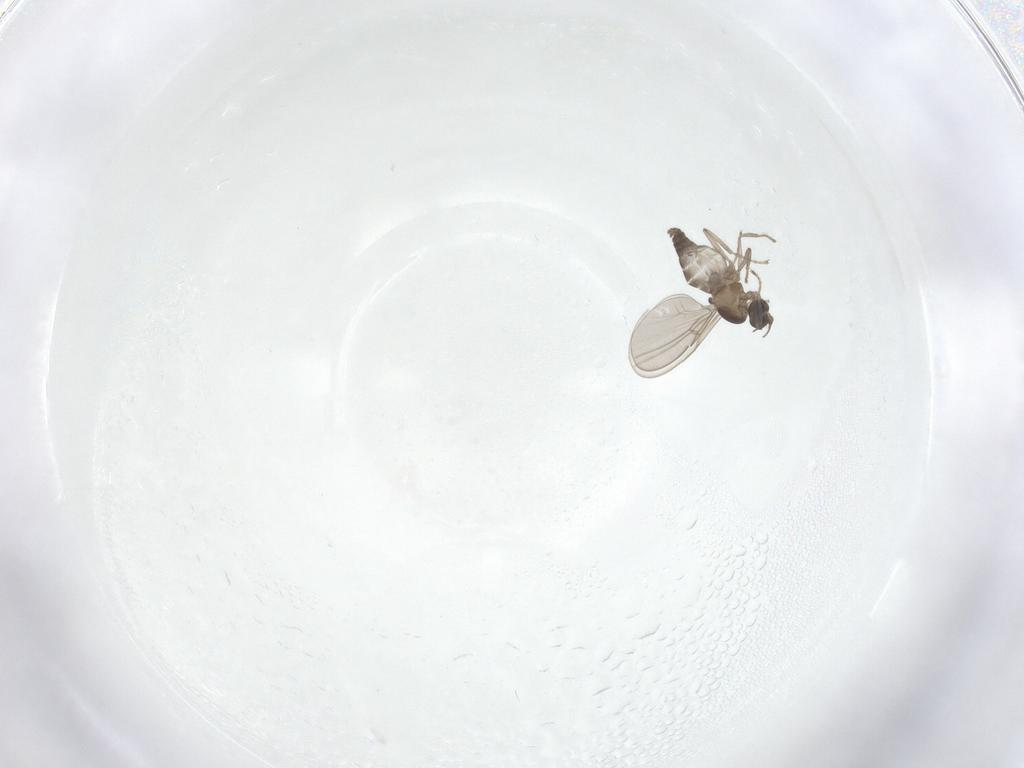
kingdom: Animalia
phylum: Arthropoda
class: Insecta
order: Diptera
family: Cecidomyiidae
